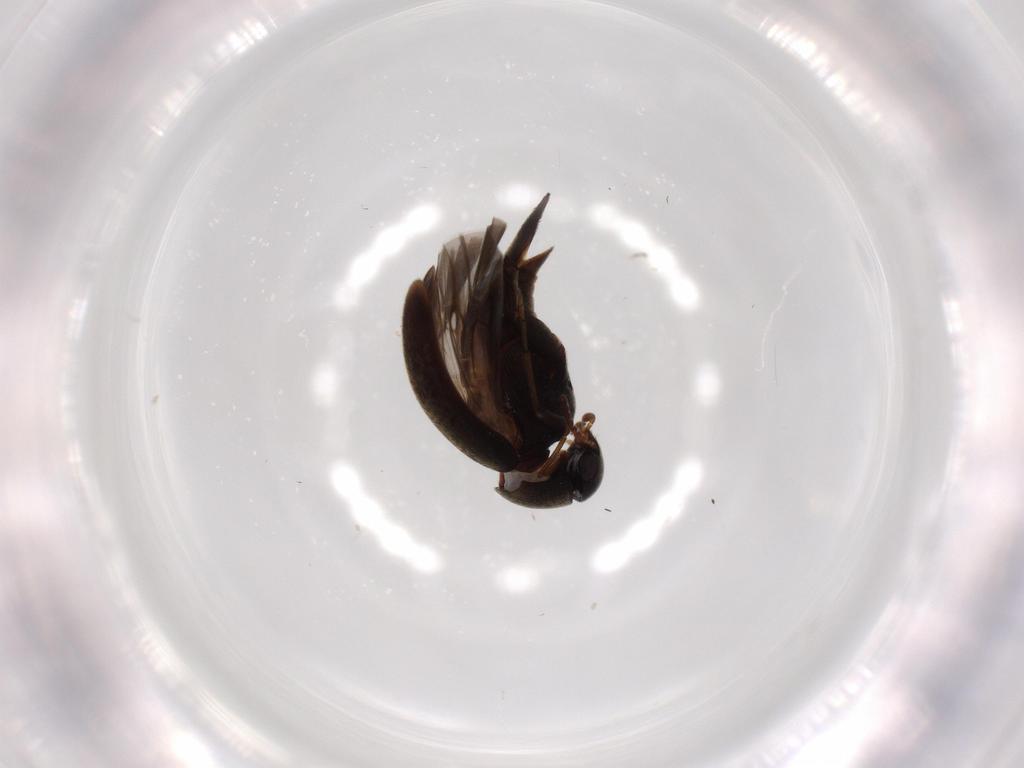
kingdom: Animalia
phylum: Arthropoda
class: Insecta
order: Coleoptera
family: Mordellidae
